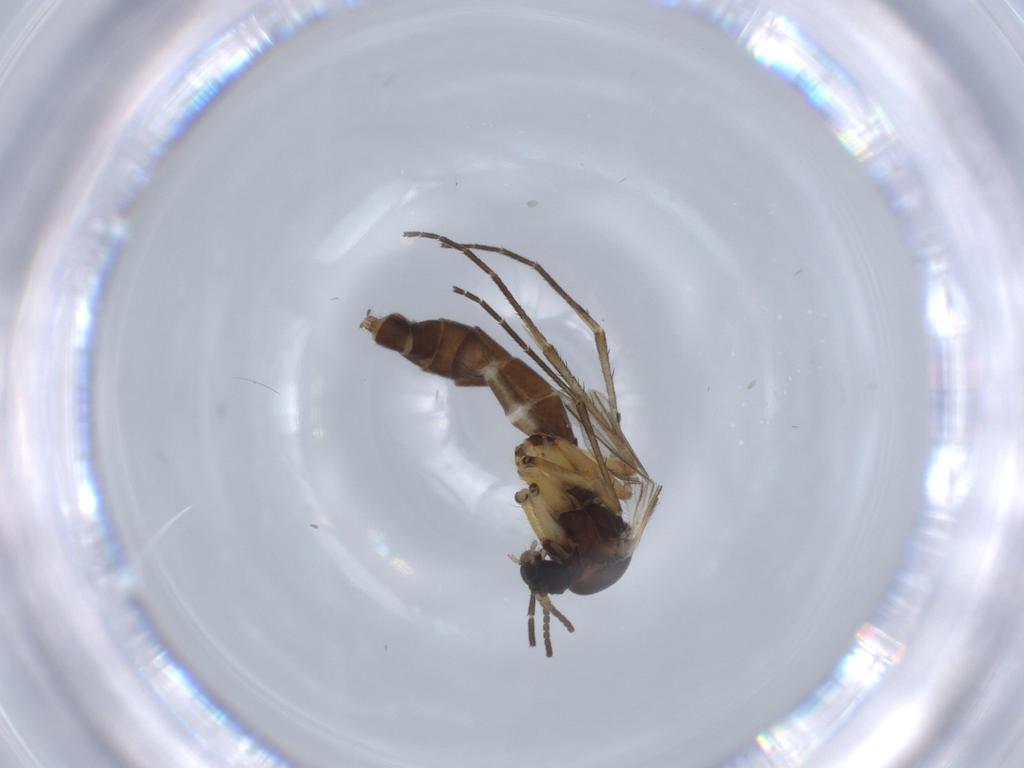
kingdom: Animalia
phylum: Arthropoda
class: Insecta
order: Diptera
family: Mycetophilidae
